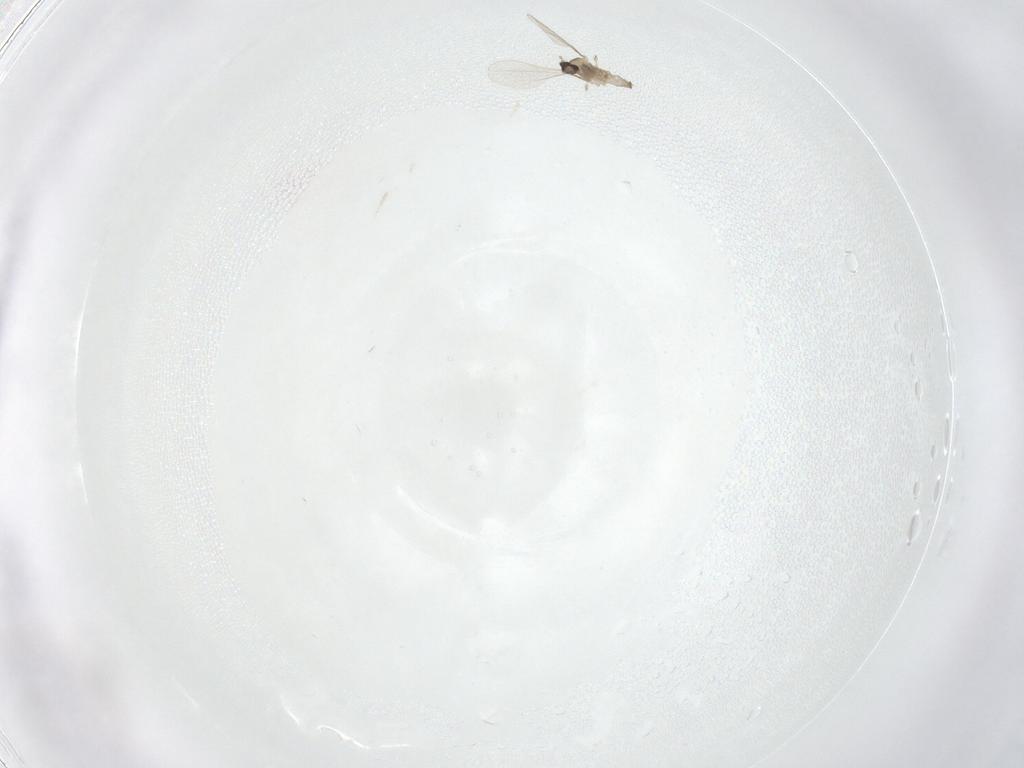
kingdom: Animalia
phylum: Arthropoda
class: Insecta
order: Diptera
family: Cecidomyiidae
